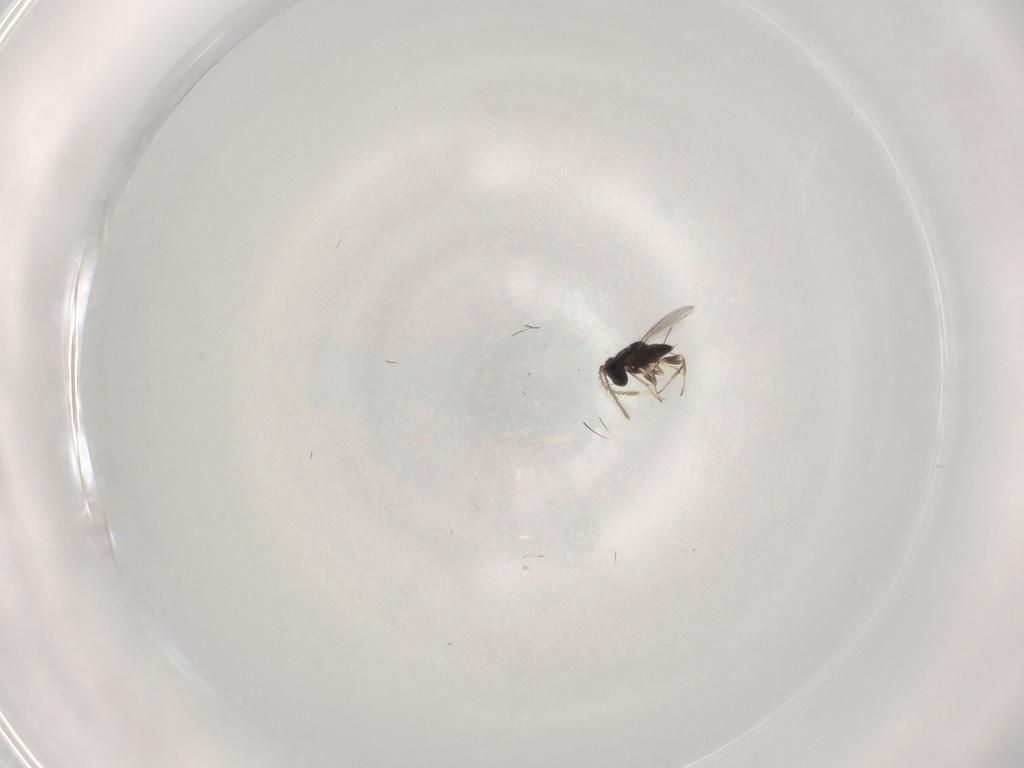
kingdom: Animalia
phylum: Arthropoda
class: Insecta
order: Hymenoptera
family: Encyrtidae
